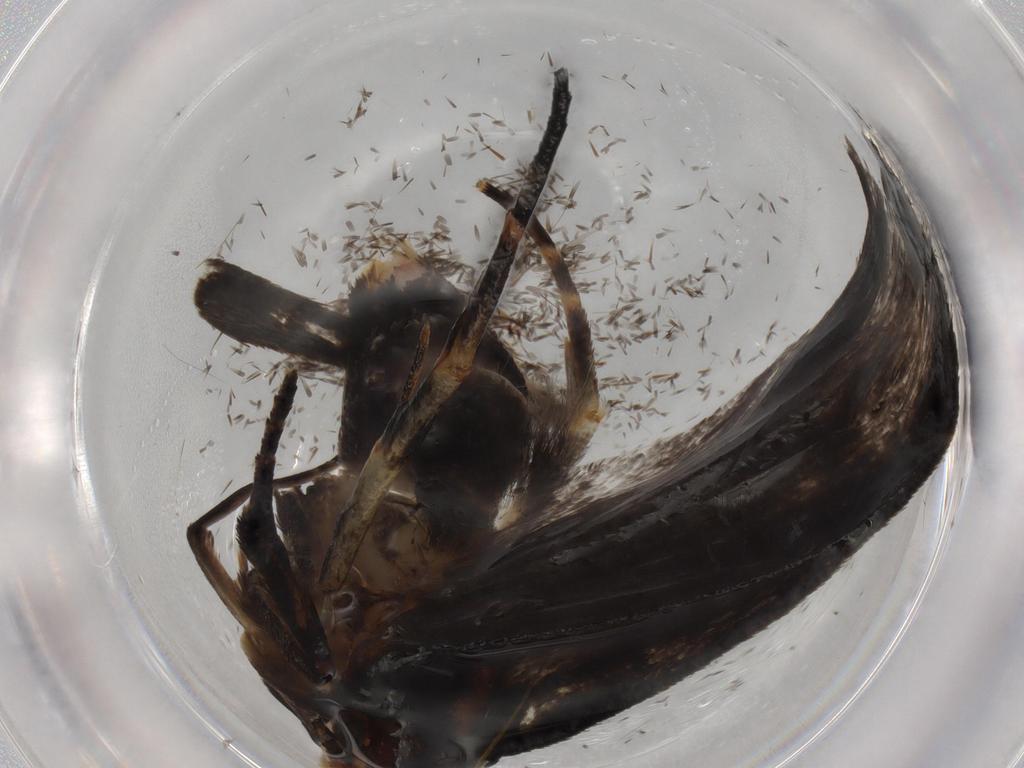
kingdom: Animalia
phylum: Arthropoda
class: Insecta
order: Lepidoptera
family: Gelechiidae
